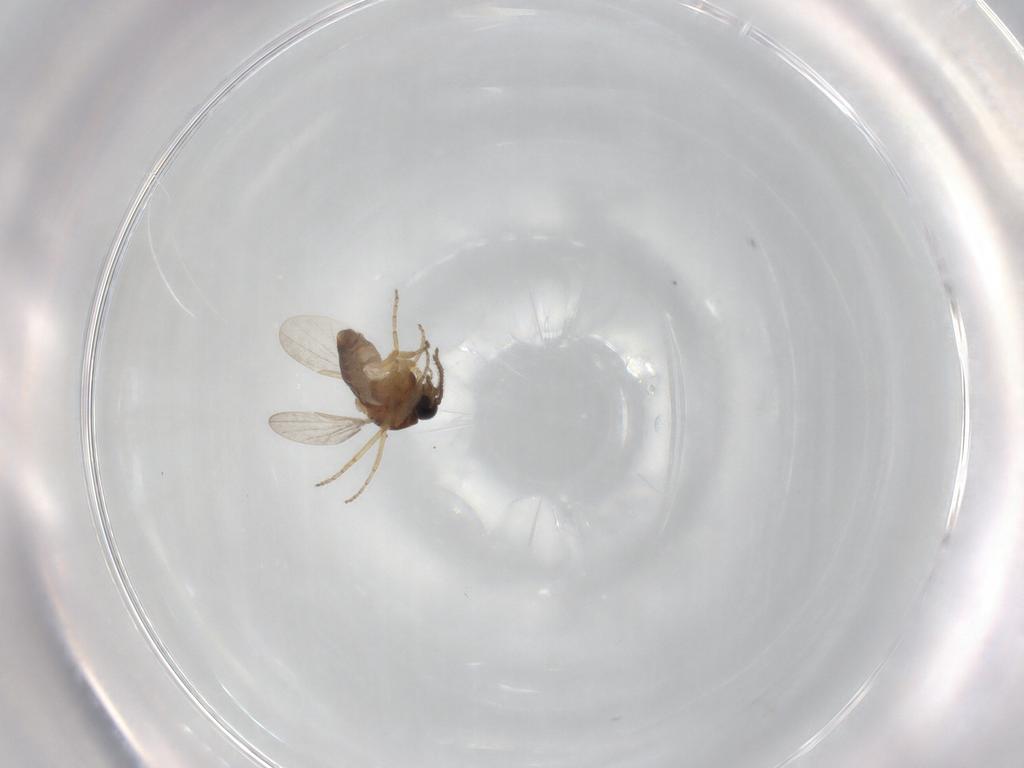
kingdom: Animalia
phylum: Arthropoda
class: Insecta
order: Diptera
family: Ceratopogonidae
